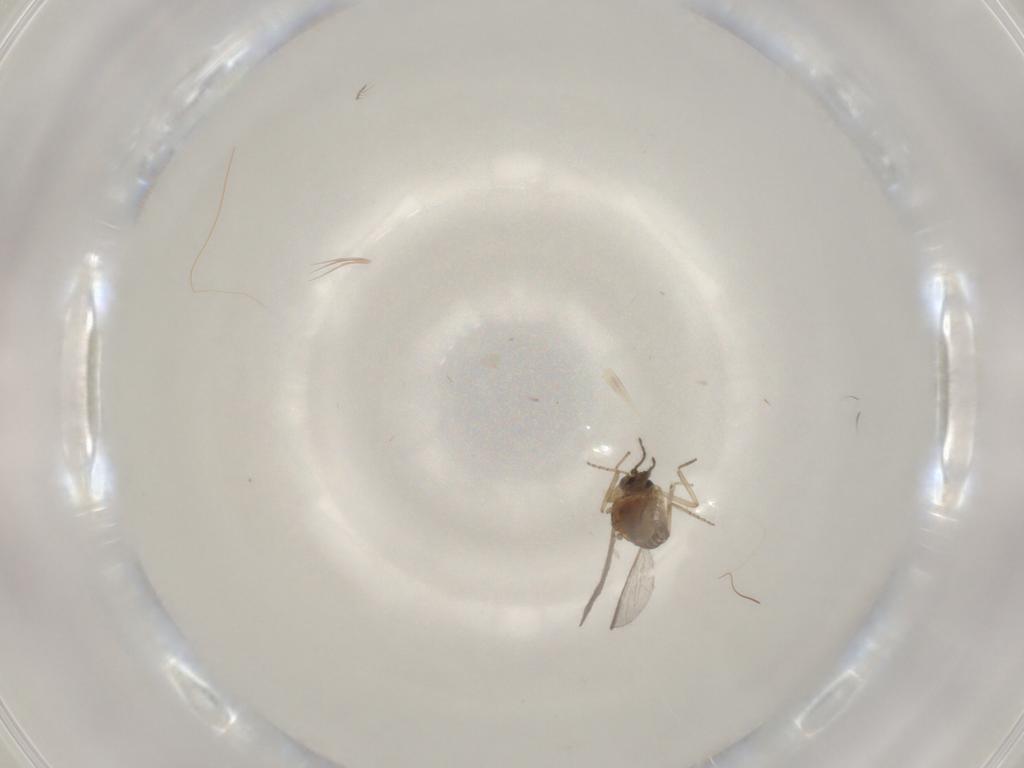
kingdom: Animalia
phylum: Arthropoda
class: Insecta
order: Diptera
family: Ceratopogonidae
